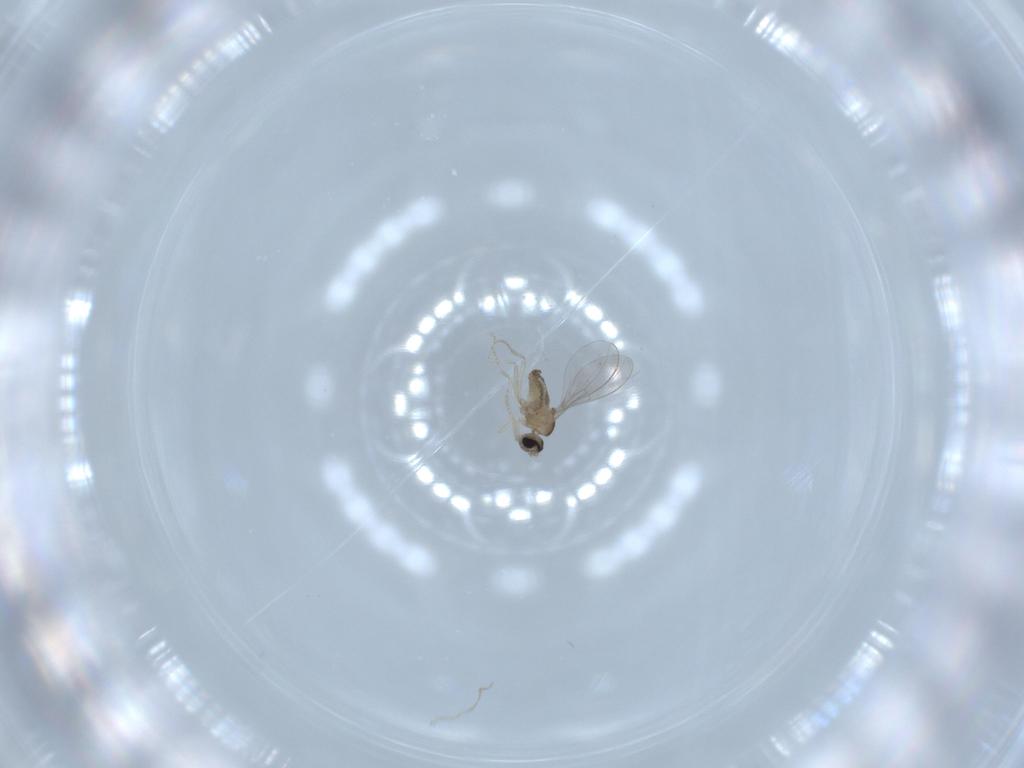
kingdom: Animalia
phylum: Arthropoda
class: Insecta
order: Diptera
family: Cecidomyiidae
